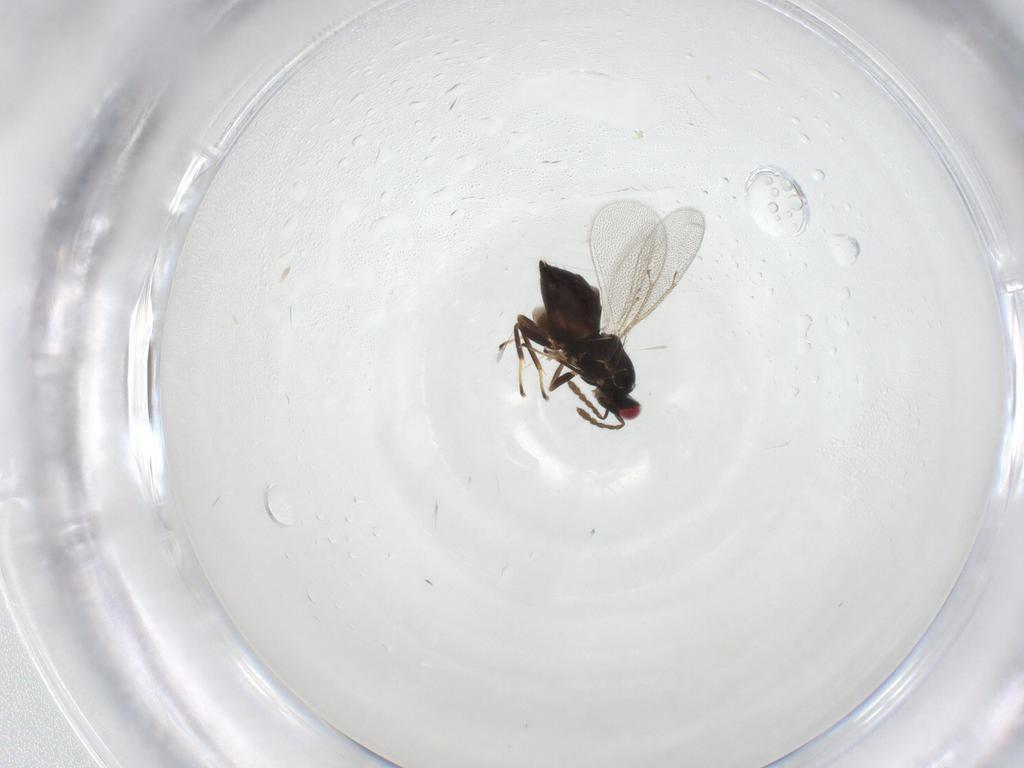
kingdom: Animalia
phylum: Arthropoda
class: Insecta
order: Hymenoptera
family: Eulophidae
